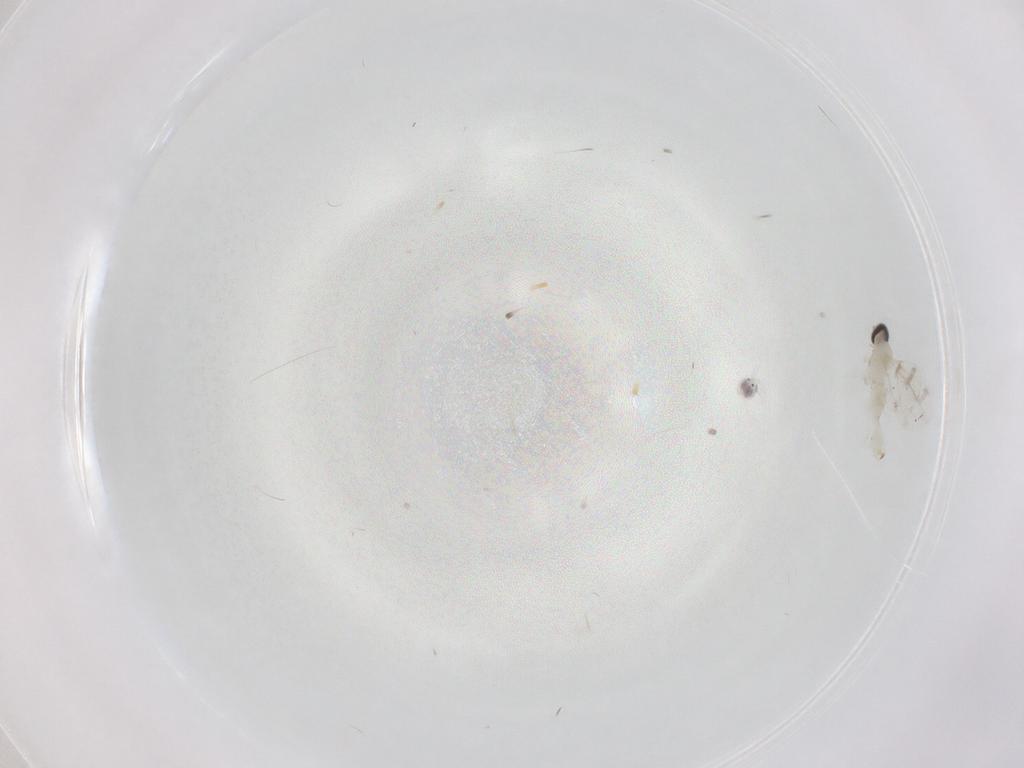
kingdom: Animalia
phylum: Arthropoda
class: Insecta
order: Diptera
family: Cecidomyiidae
